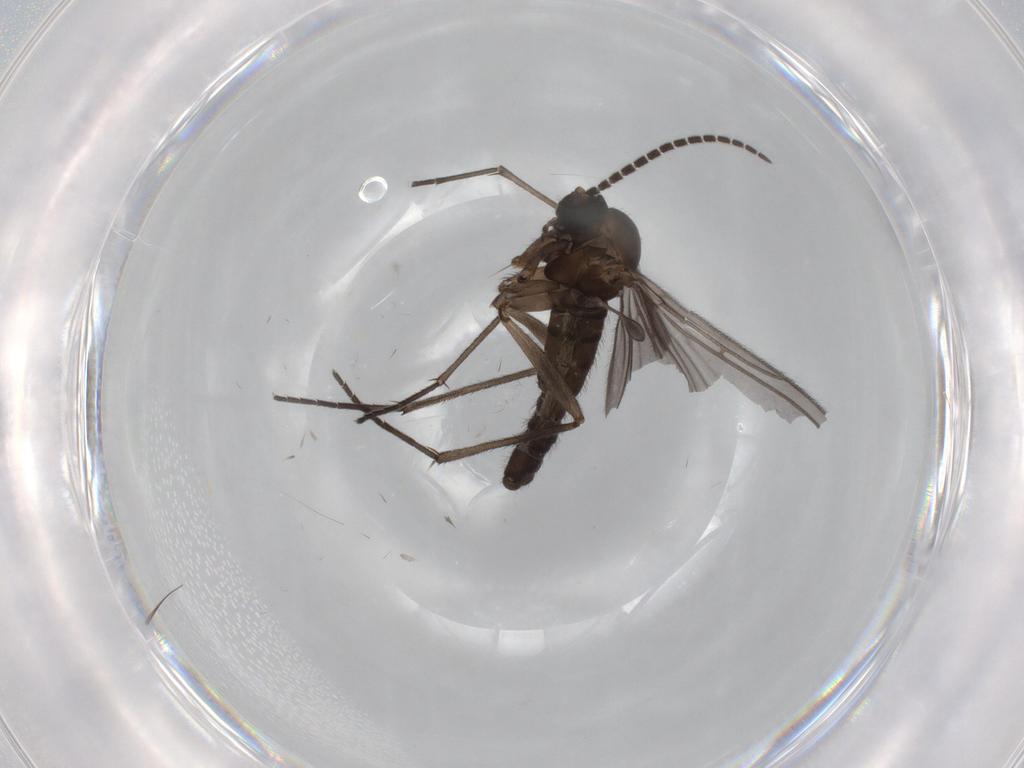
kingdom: Animalia
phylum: Arthropoda
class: Insecta
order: Diptera
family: Sciaridae
